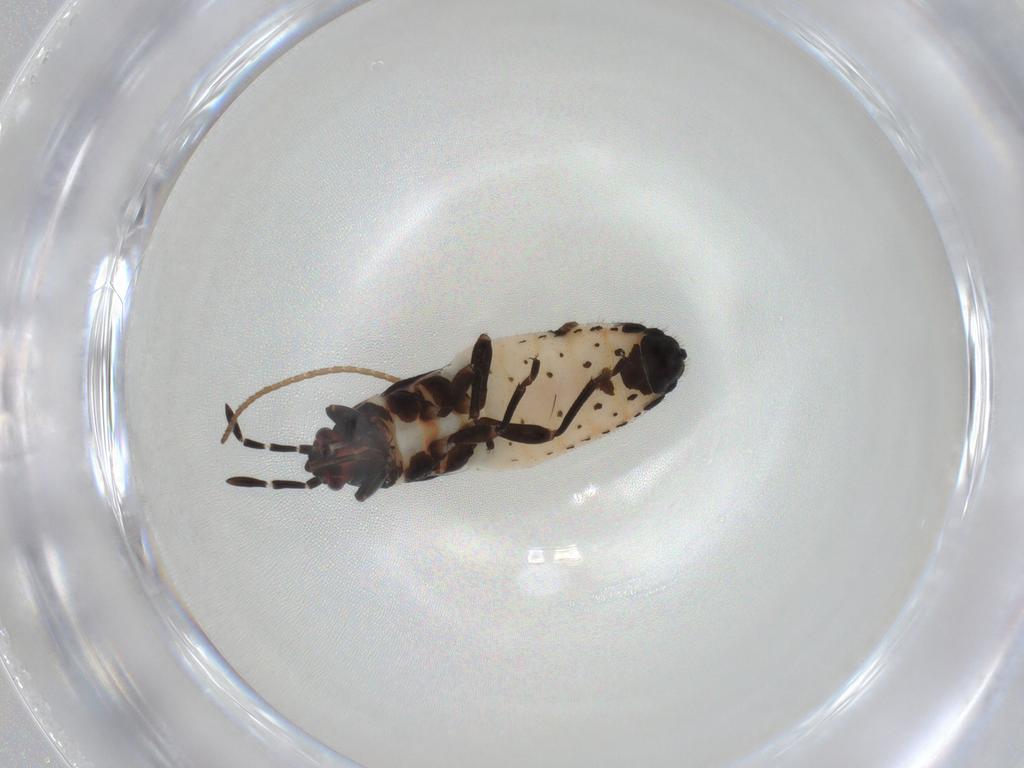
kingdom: Animalia
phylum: Arthropoda
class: Insecta
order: Hemiptera
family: Blissidae
